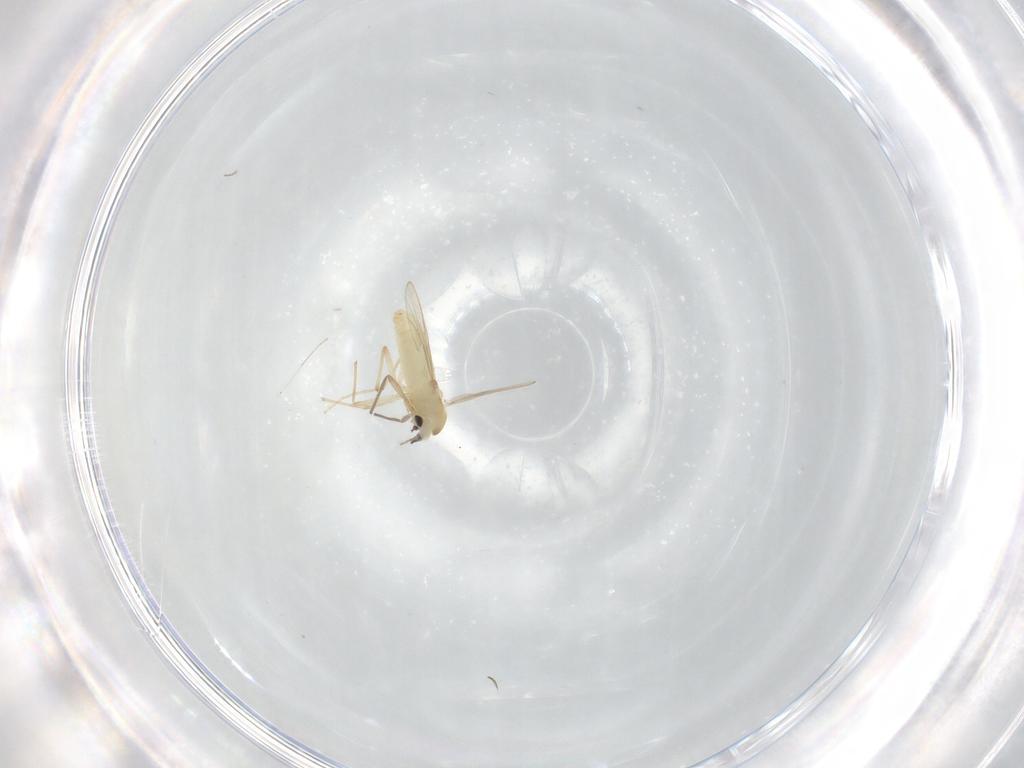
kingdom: Animalia
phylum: Arthropoda
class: Insecta
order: Diptera
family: Chironomidae
